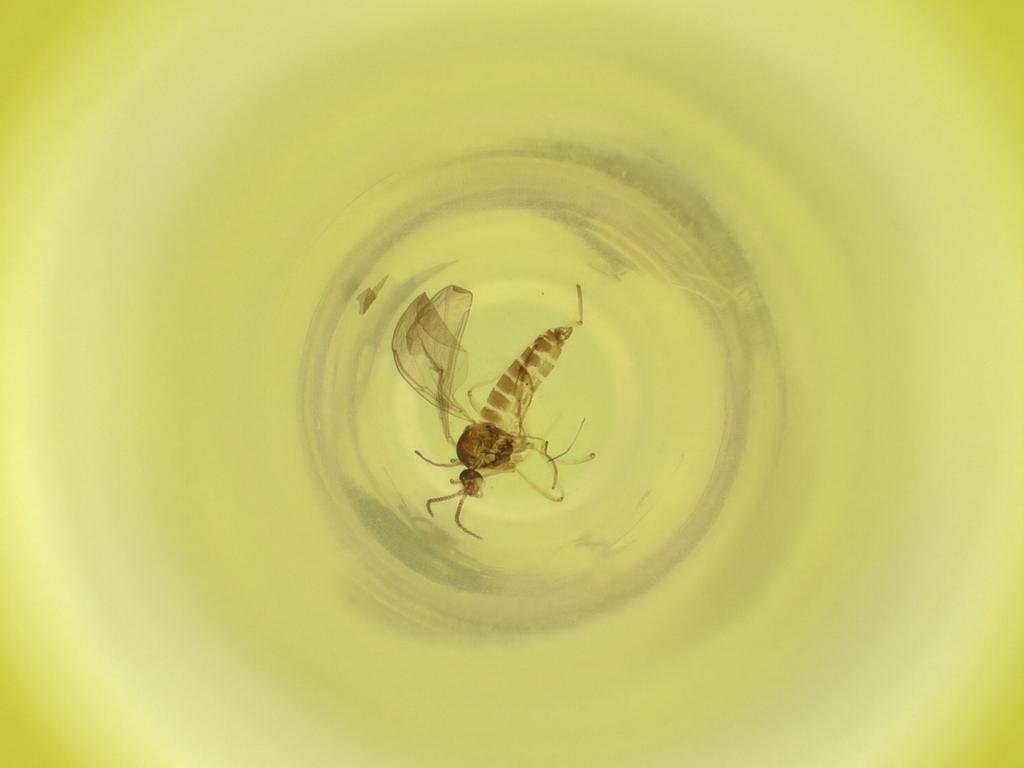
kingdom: Animalia
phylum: Arthropoda
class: Insecta
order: Diptera
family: Cecidomyiidae
